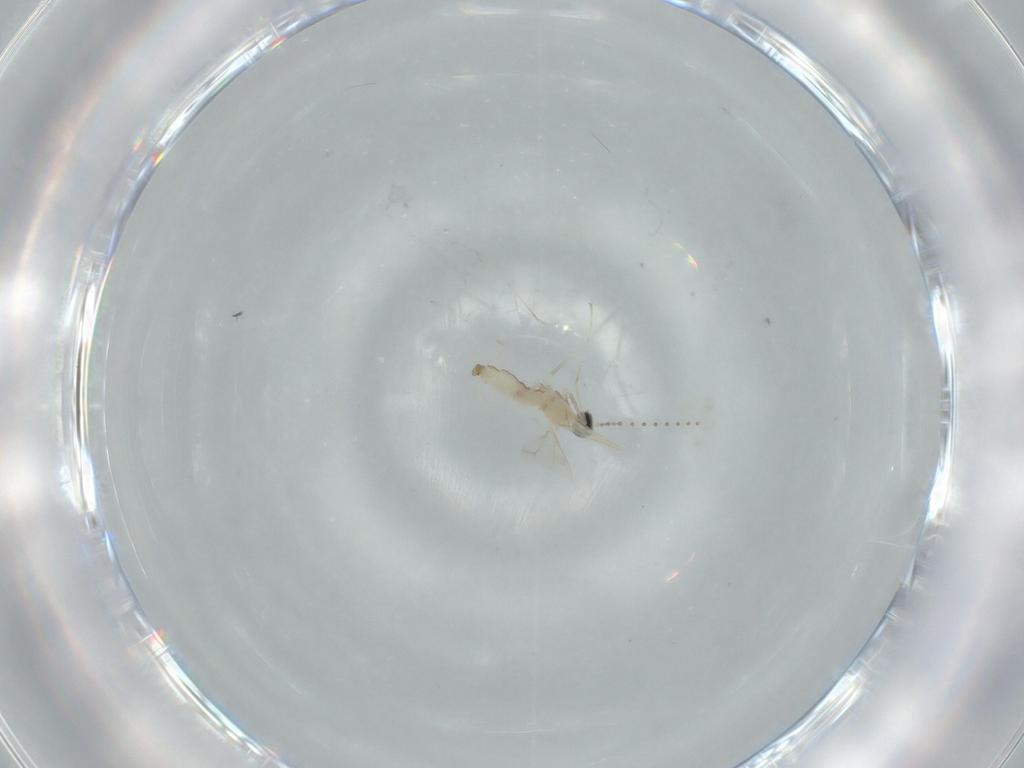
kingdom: Animalia
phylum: Arthropoda
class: Insecta
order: Diptera
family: Cecidomyiidae
